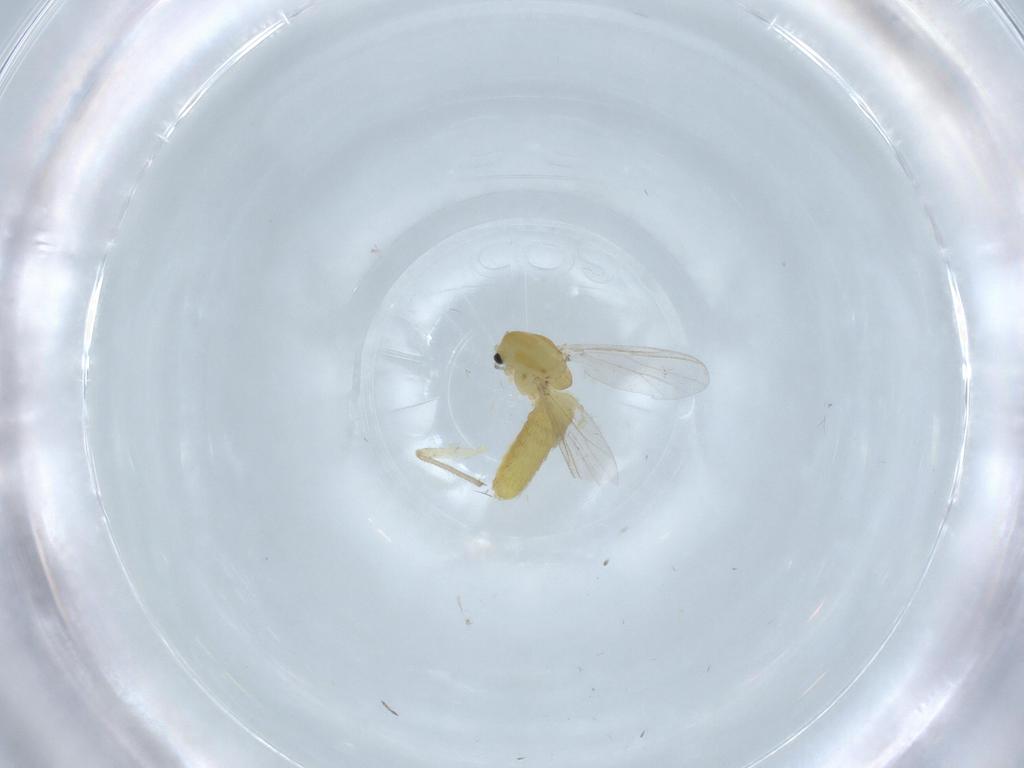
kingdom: Animalia
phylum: Arthropoda
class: Insecta
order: Diptera
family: Chironomidae
